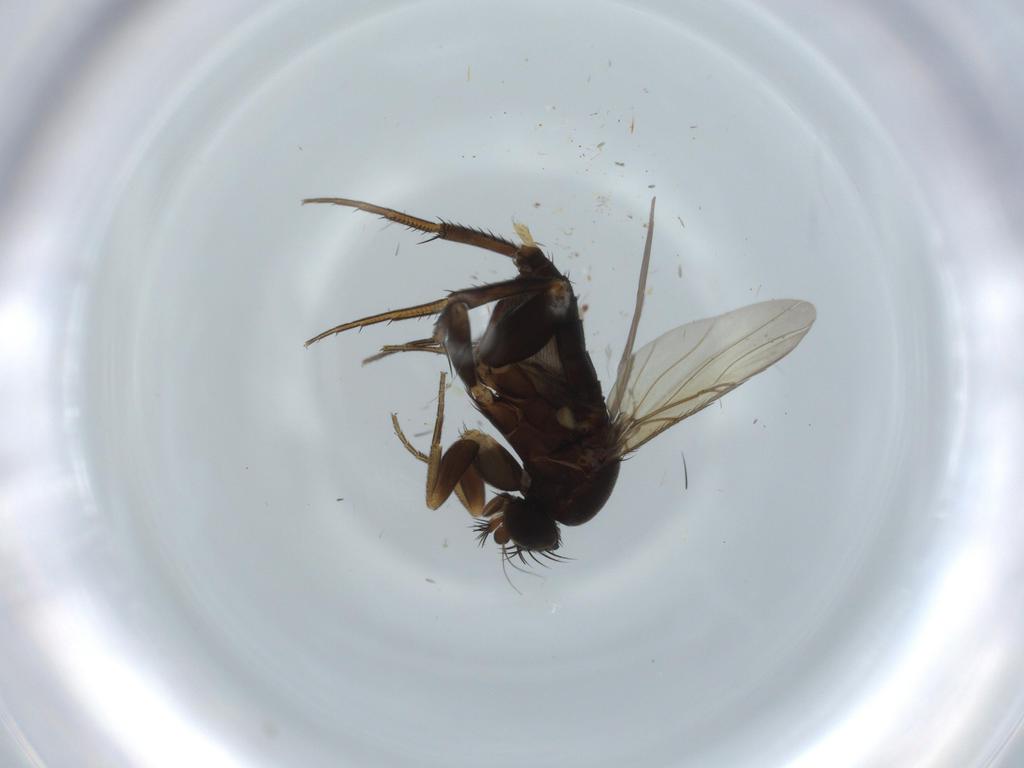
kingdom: Animalia
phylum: Arthropoda
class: Insecta
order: Diptera
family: Phoridae
